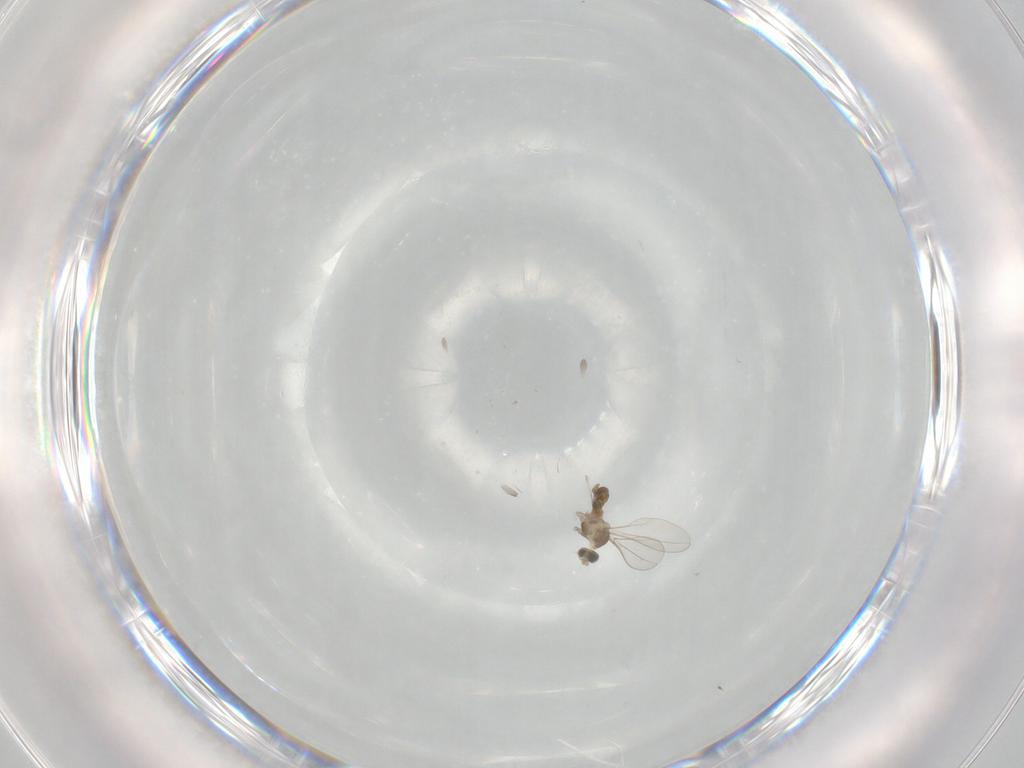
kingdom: Animalia
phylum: Arthropoda
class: Insecta
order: Diptera
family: Cecidomyiidae
